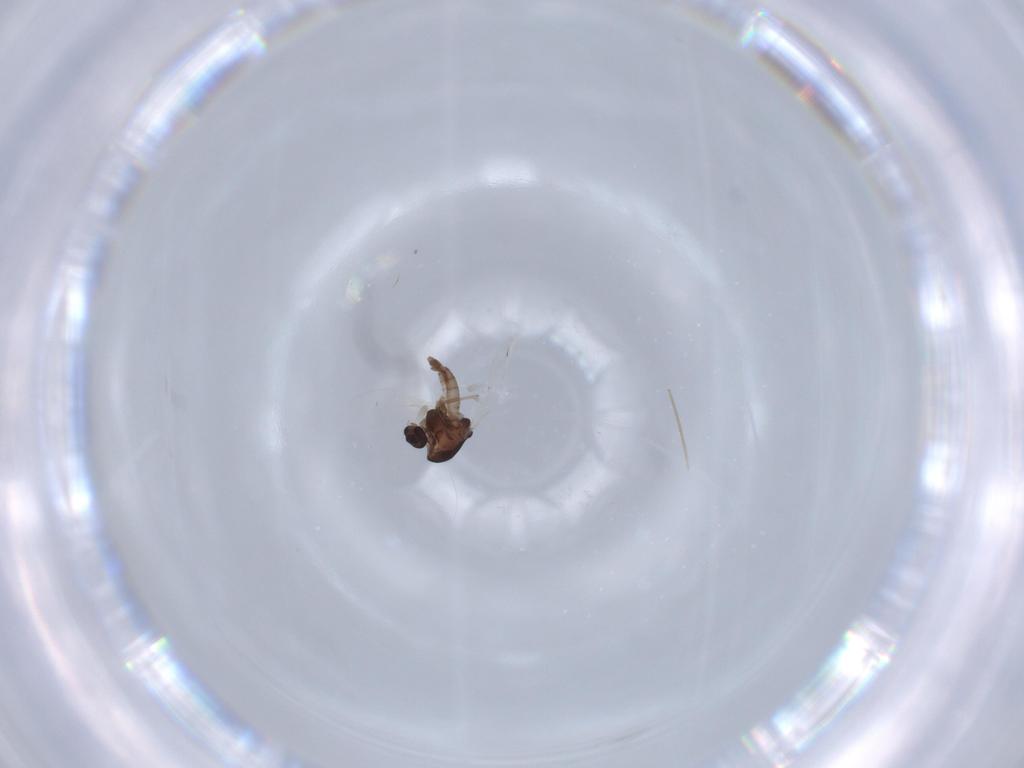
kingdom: Animalia
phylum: Arthropoda
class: Insecta
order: Diptera
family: Chironomidae
